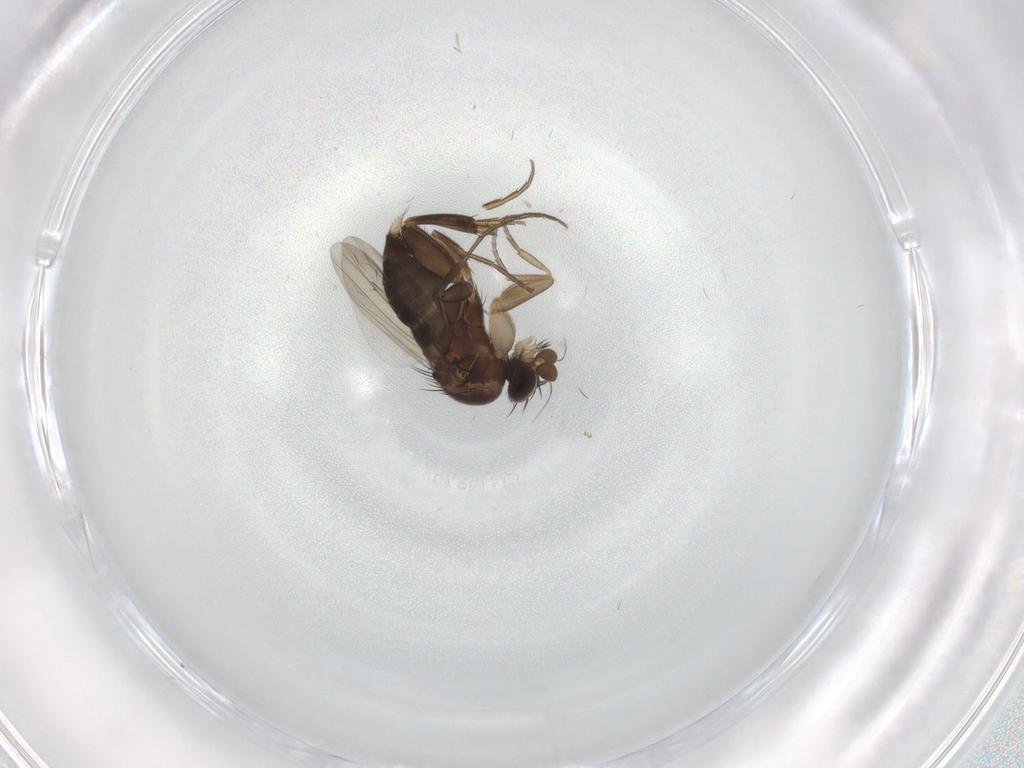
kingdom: Animalia
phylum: Arthropoda
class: Insecta
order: Diptera
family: Phoridae
